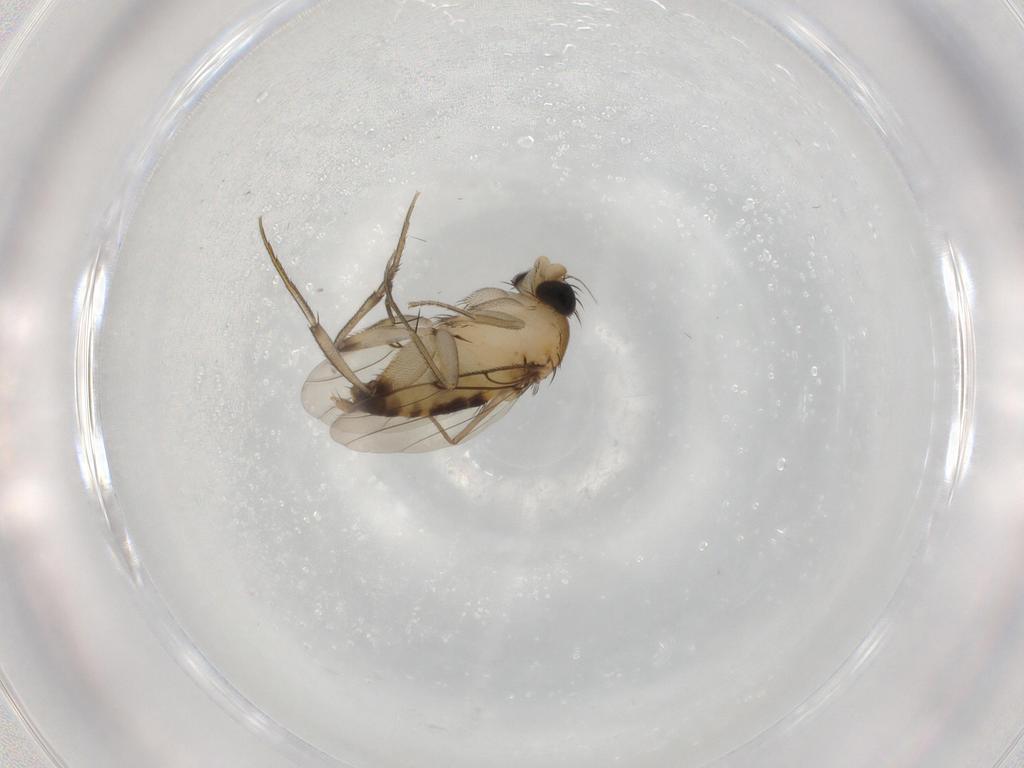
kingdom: Animalia
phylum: Arthropoda
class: Insecta
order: Diptera
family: Phoridae
